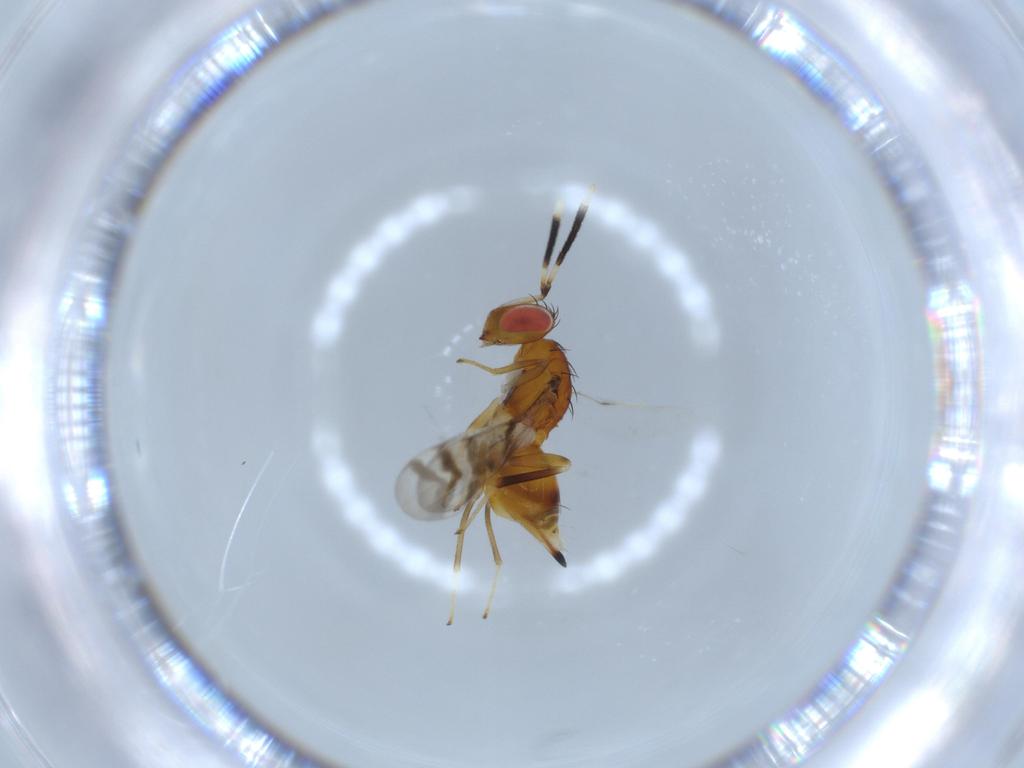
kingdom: Animalia
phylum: Arthropoda
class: Insecta
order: Hymenoptera
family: Diparidae
